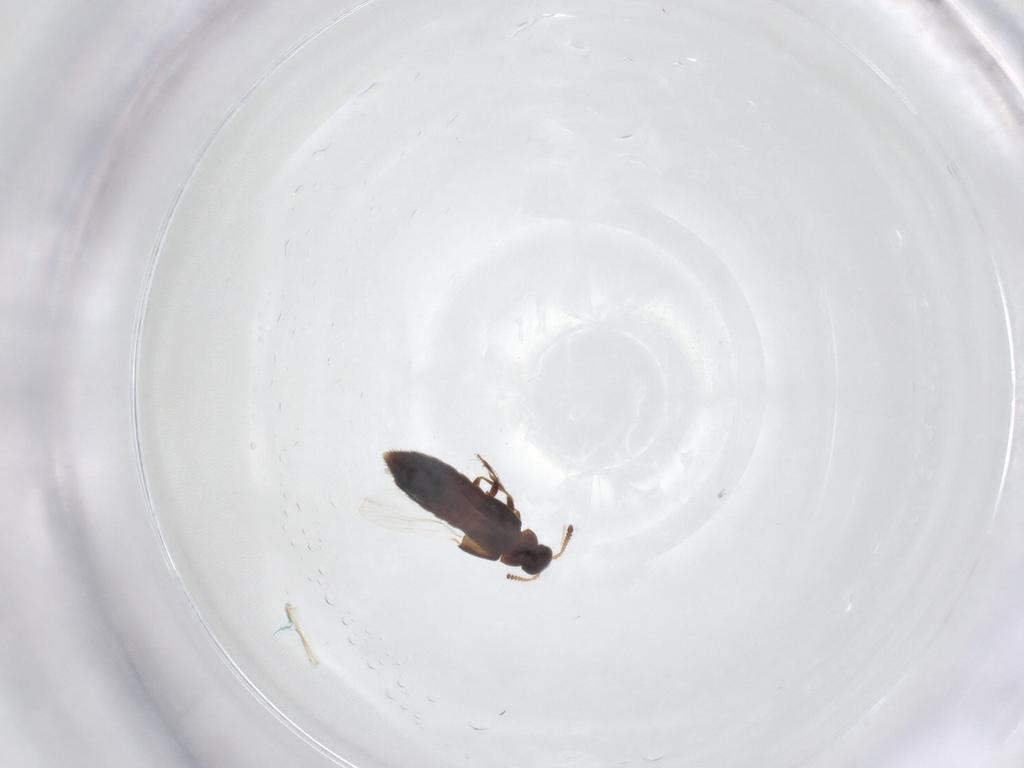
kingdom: Animalia
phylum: Arthropoda
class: Insecta
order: Coleoptera
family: Staphylinidae
